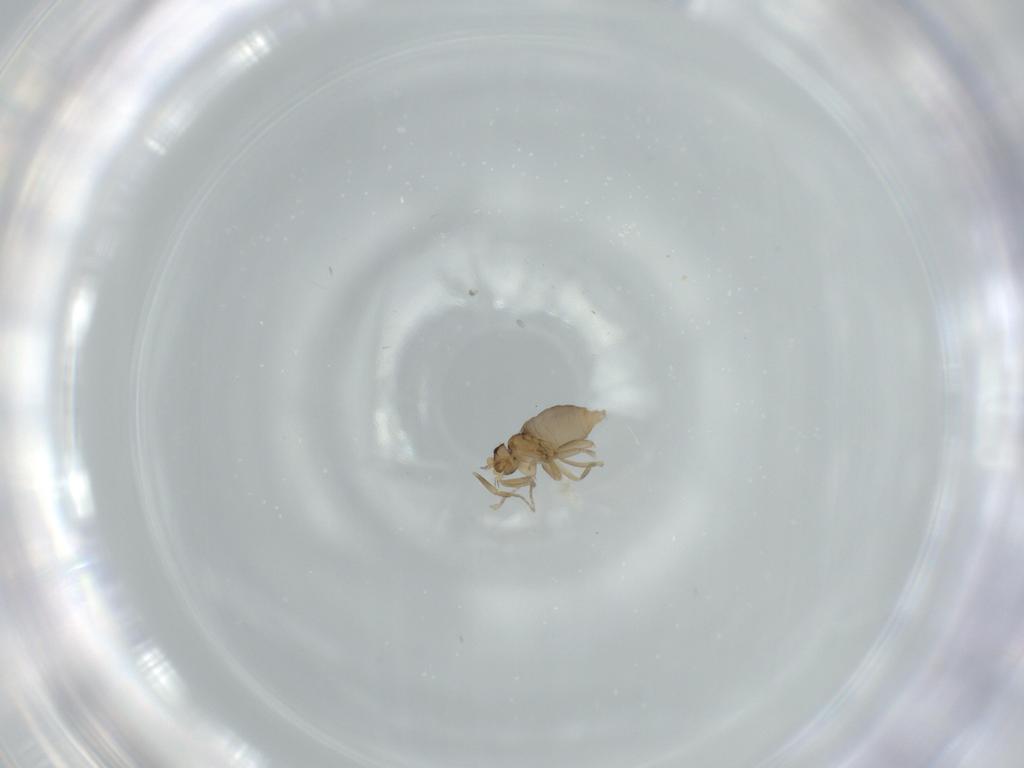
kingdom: Animalia
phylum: Arthropoda
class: Insecta
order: Diptera
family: Phoridae
